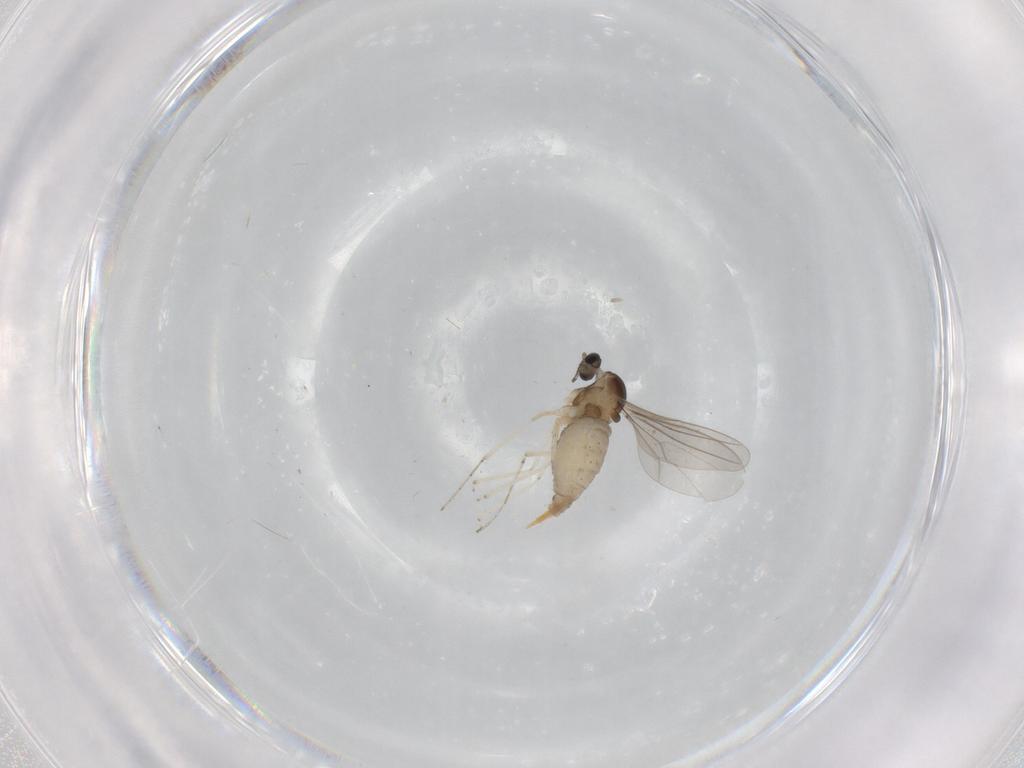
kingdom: Animalia
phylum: Arthropoda
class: Insecta
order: Diptera
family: Cecidomyiidae
